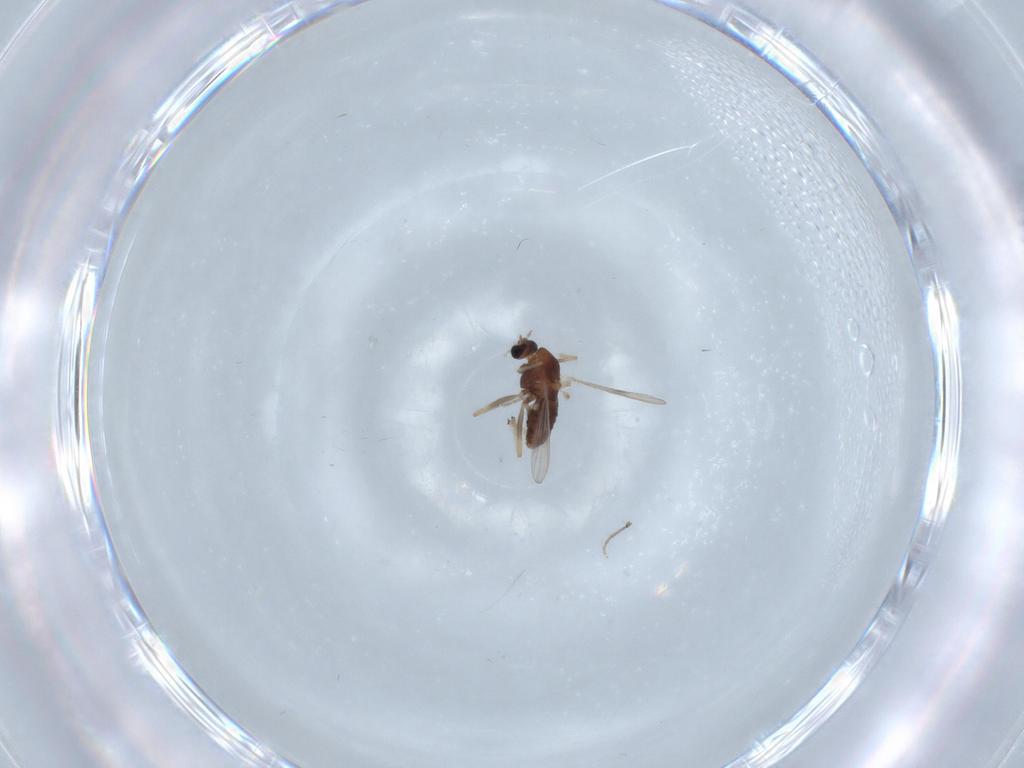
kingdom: Animalia
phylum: Arthropoda
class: Insecta
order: Diptera
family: Chironomidae
